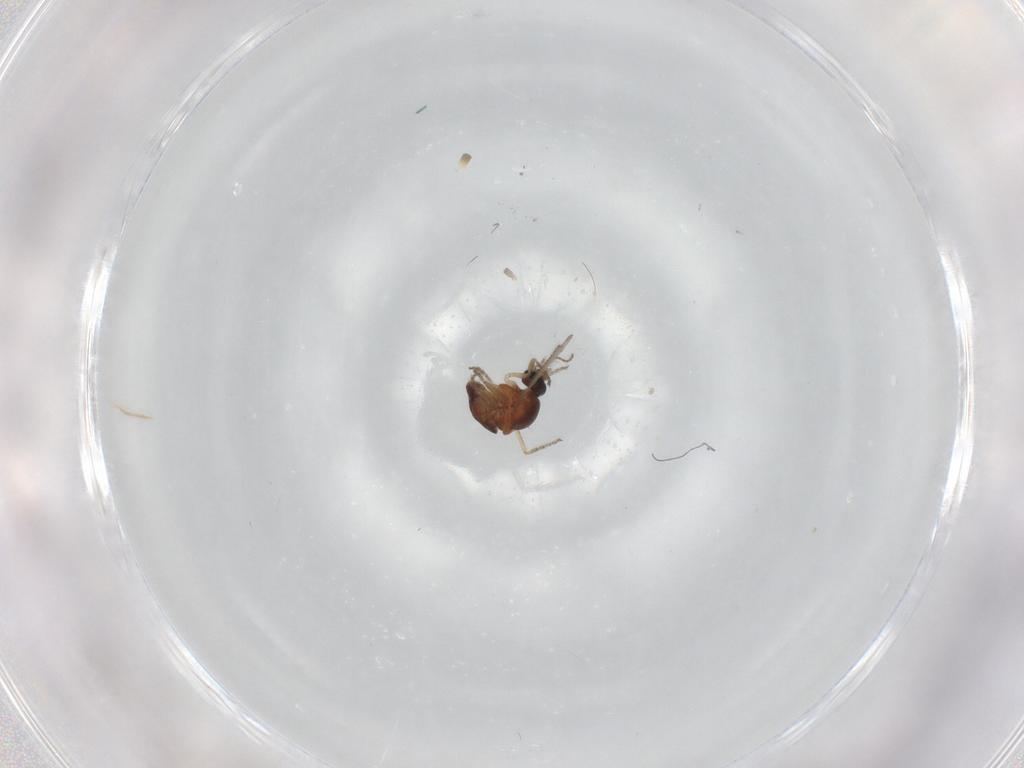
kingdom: Animalia
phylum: Arthropoda
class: Insecta
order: Diptera
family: Ceratopogonidae
